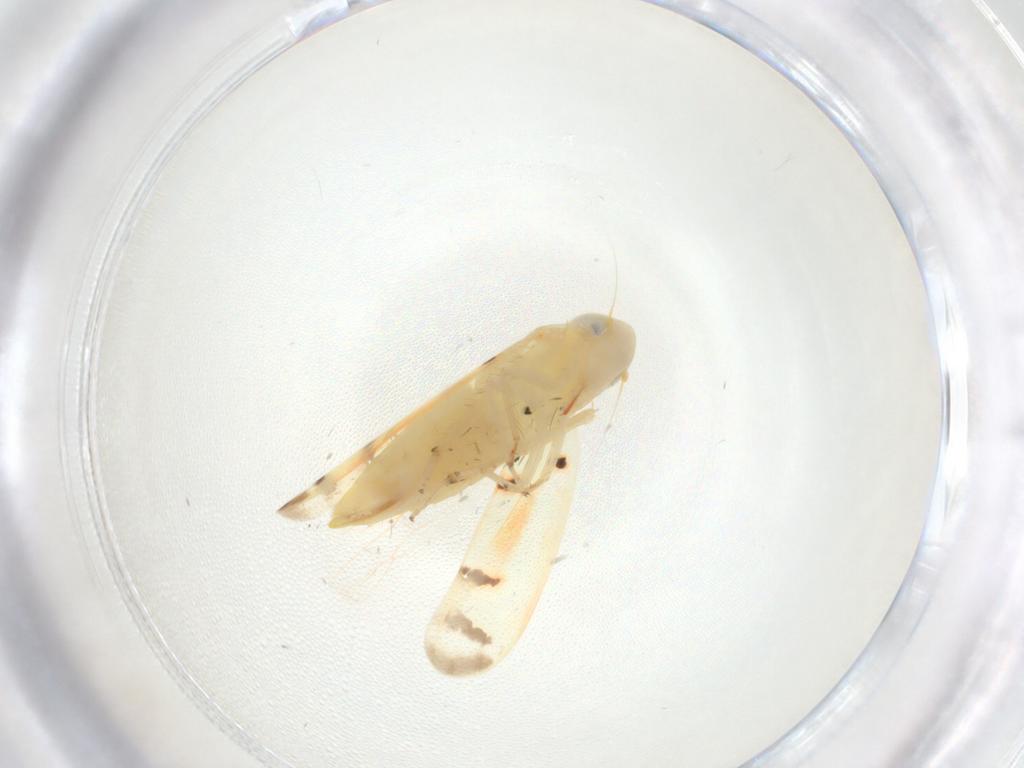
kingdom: Animalia
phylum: Arthropoda
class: Insecta
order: Hemiptera
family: Cicadellidae
